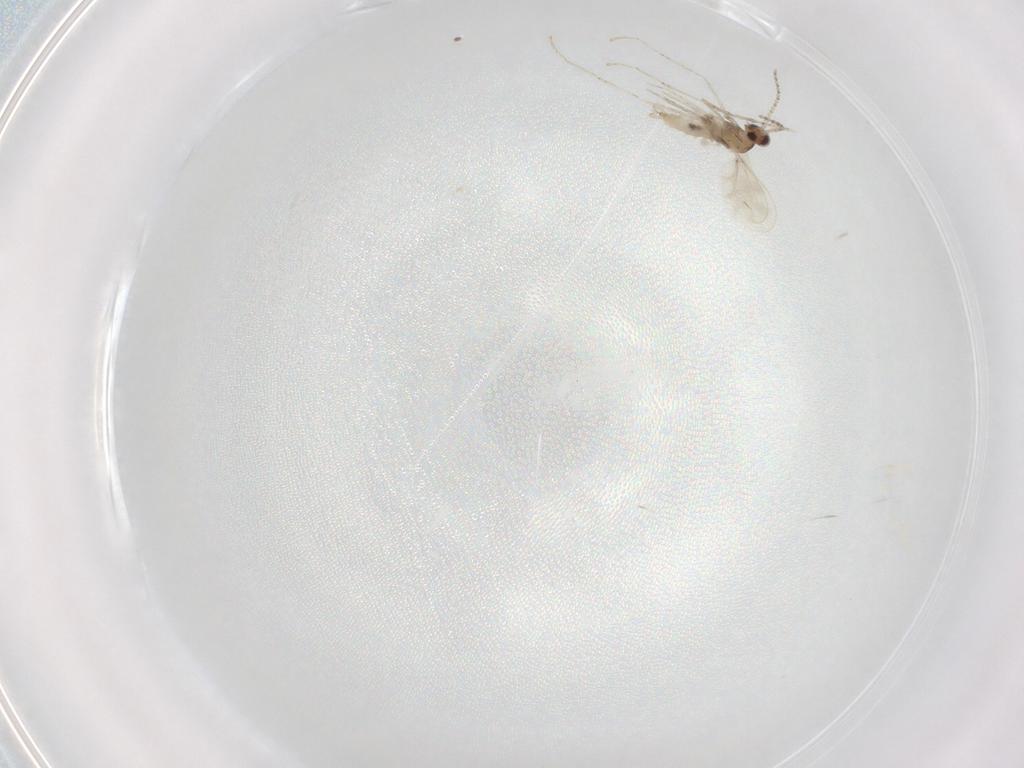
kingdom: Animalia
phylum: Arthropoda
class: Insecta
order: Diptera
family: Cecidomyiidae
